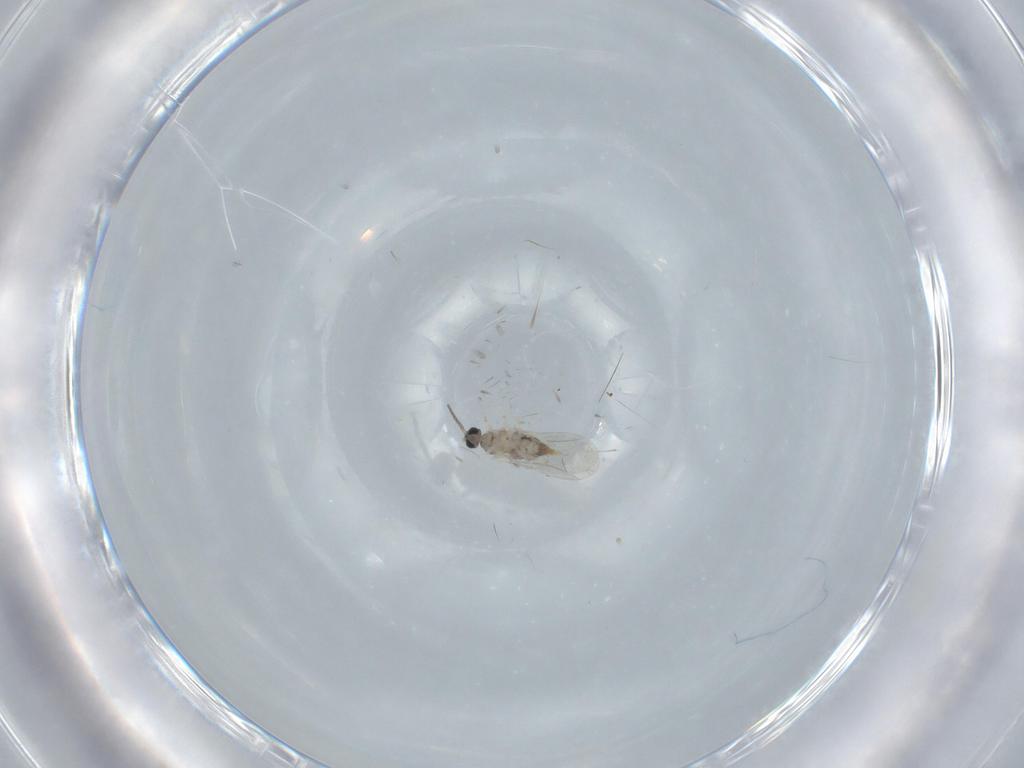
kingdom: Animalia
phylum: Arthropoda
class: Insecta
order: Diptera
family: Cecidomyiidae
